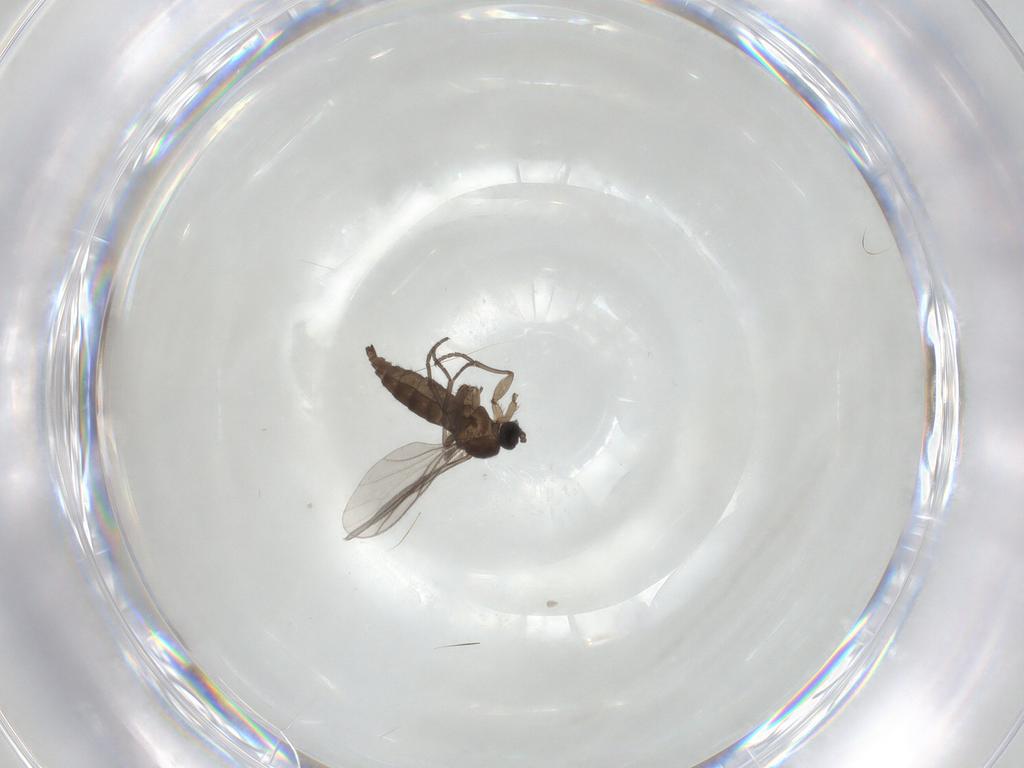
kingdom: Animalia
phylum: Arthropoda
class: Insecta
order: Diptera
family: Sciaridae
